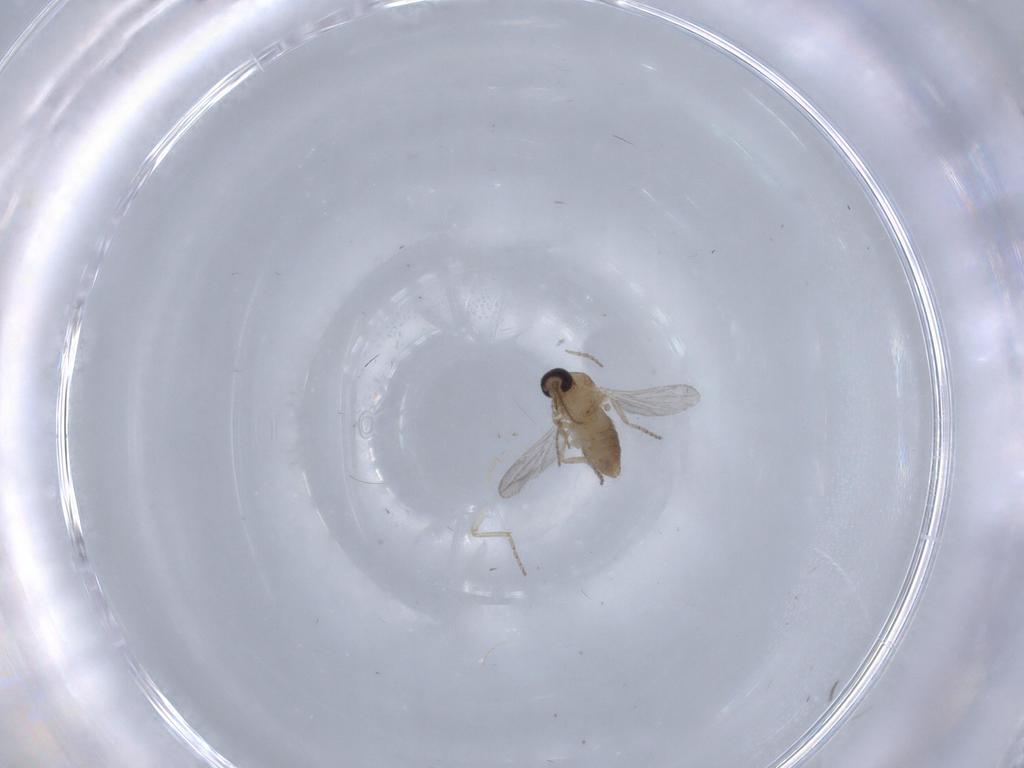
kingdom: Animalia
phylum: Arthropoda
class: Insecta
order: Diptera
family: Ceratopogonidae
